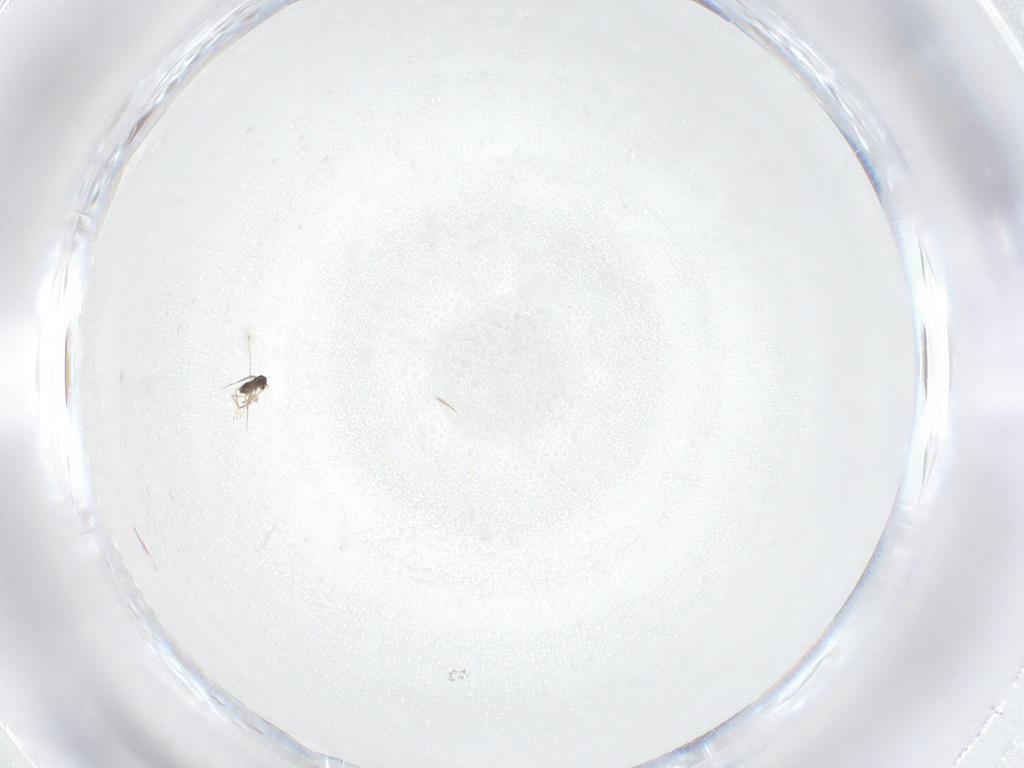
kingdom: Animalia
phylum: Arthropoda
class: Insecta
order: Hymenoptera
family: Mymaridae
